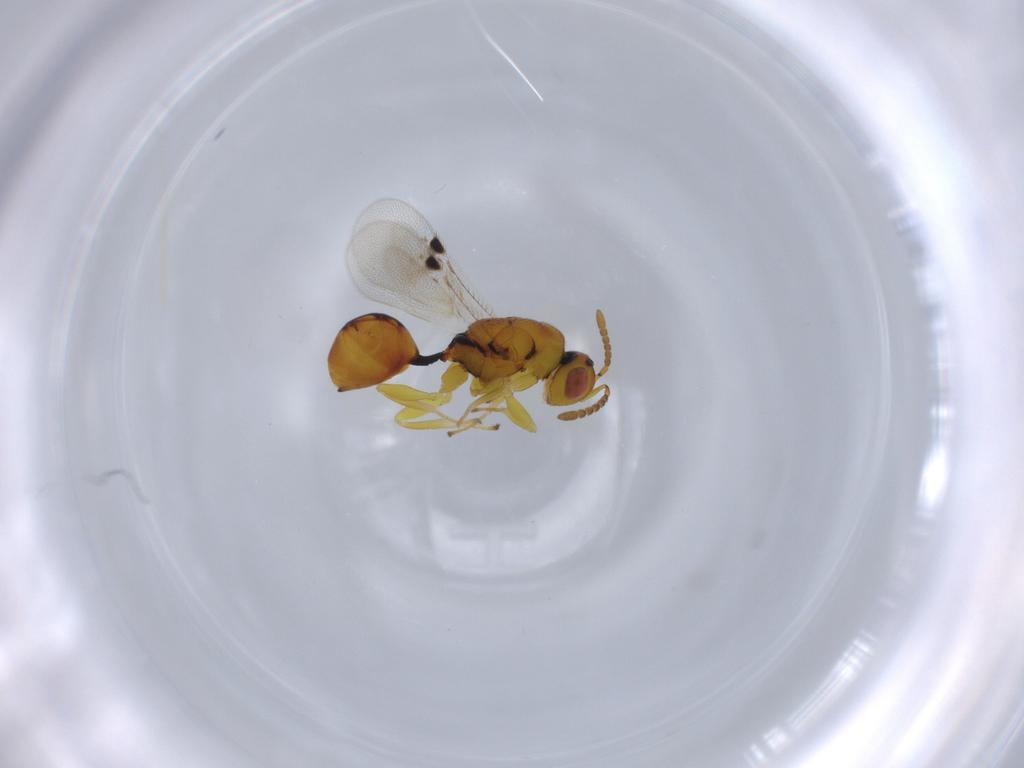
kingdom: Animalia
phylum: Arthropoda
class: Insecta
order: Hymenoptera
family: Eurytomidae
